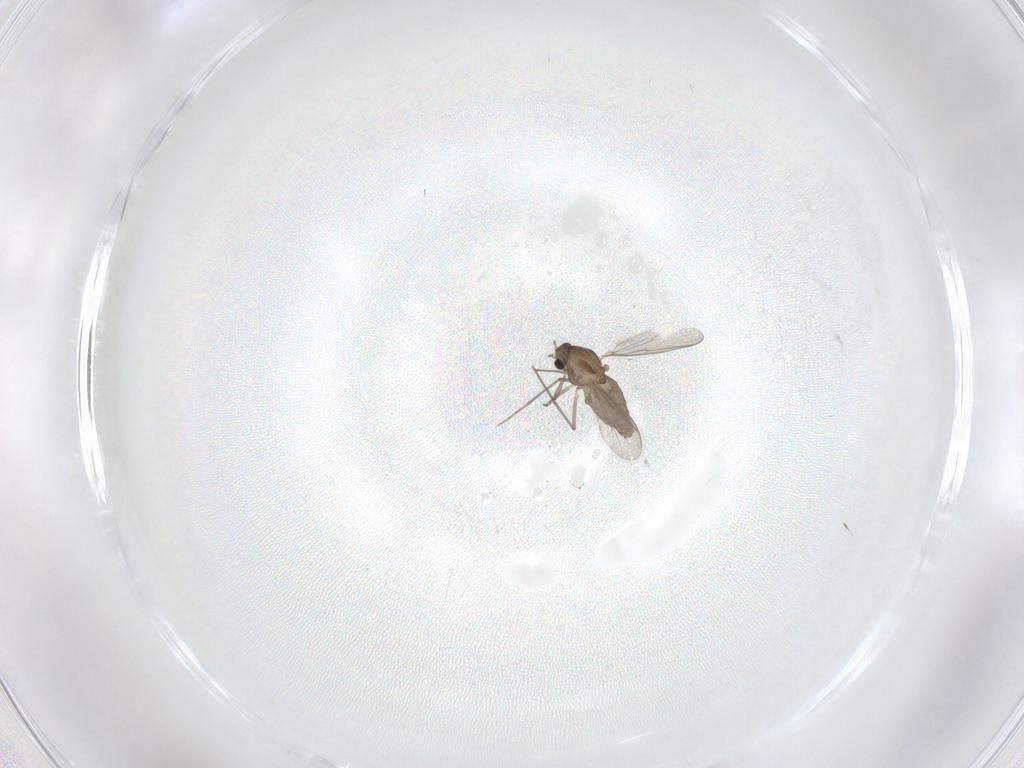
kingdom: Animalia
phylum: Arthropoda
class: Insecta
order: Diptera
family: Chironomidae
